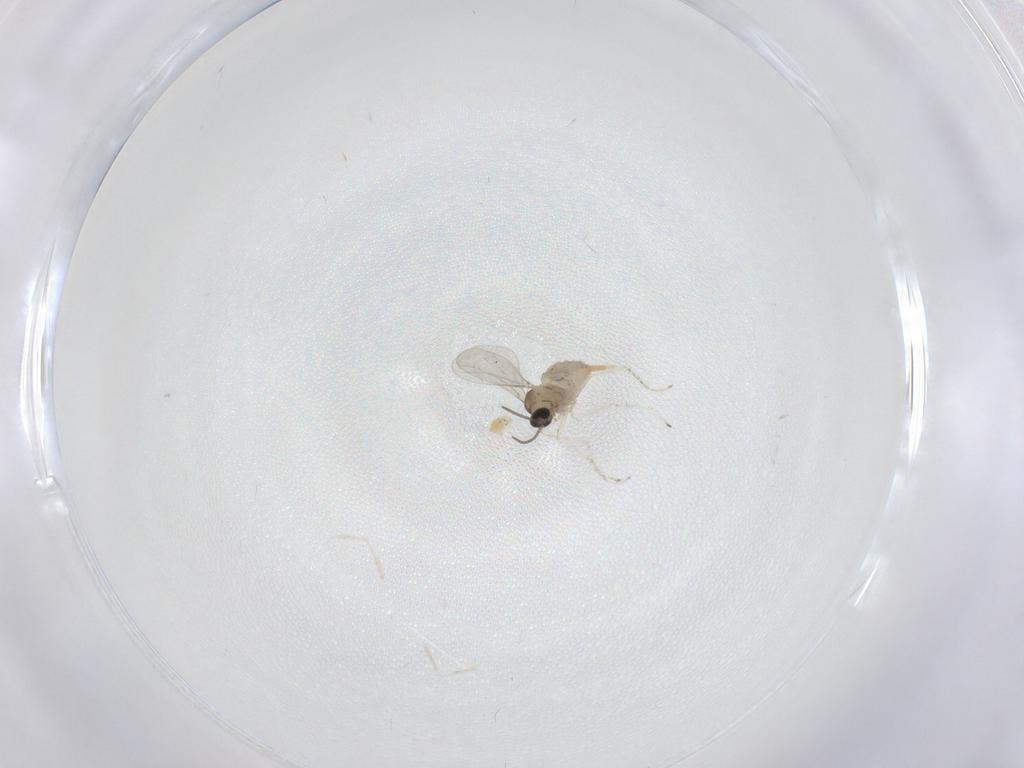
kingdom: Animalia
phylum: Arthropoda
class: Insecta
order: Diptera
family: Cecidomyiidae
